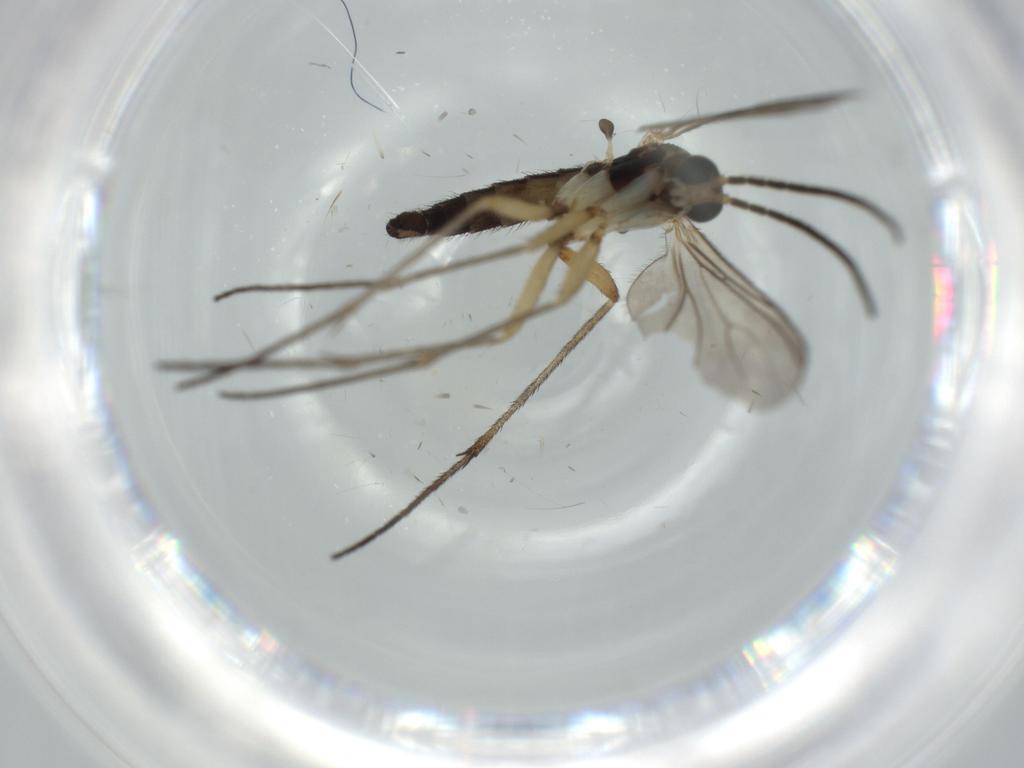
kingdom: Animalia
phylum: Arthropoda
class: Insecta
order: Diptera
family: Sciaridae
